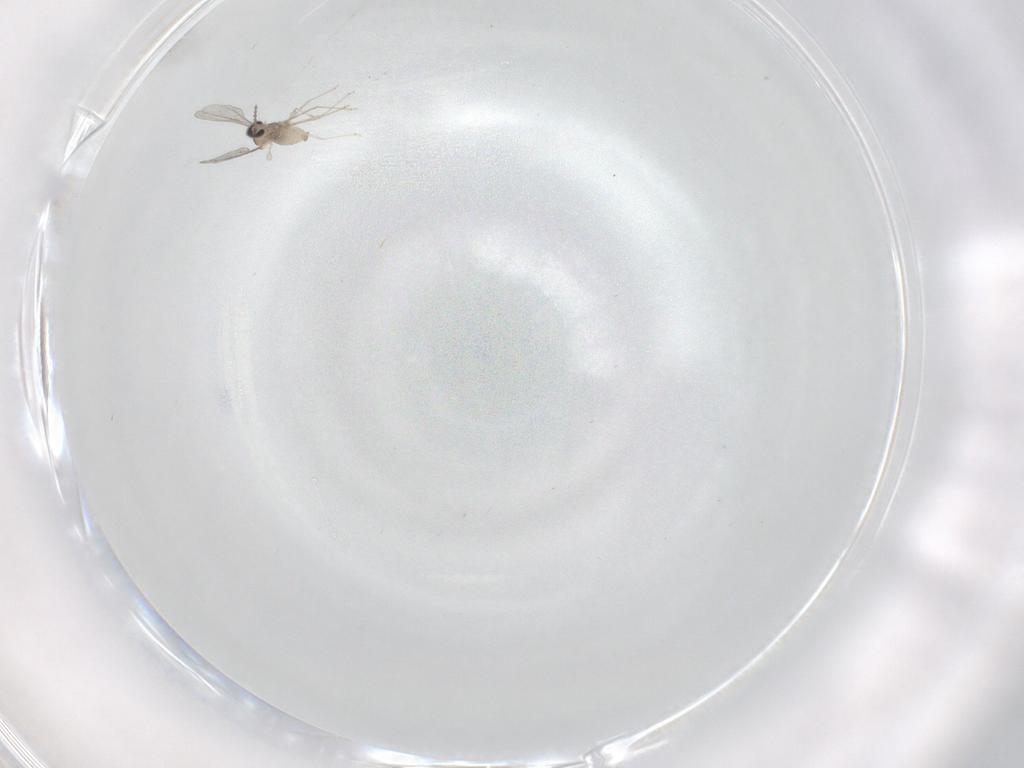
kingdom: Animalia
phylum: Arthropoda
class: Insecta
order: Diptera
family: Cecidomyiidae
